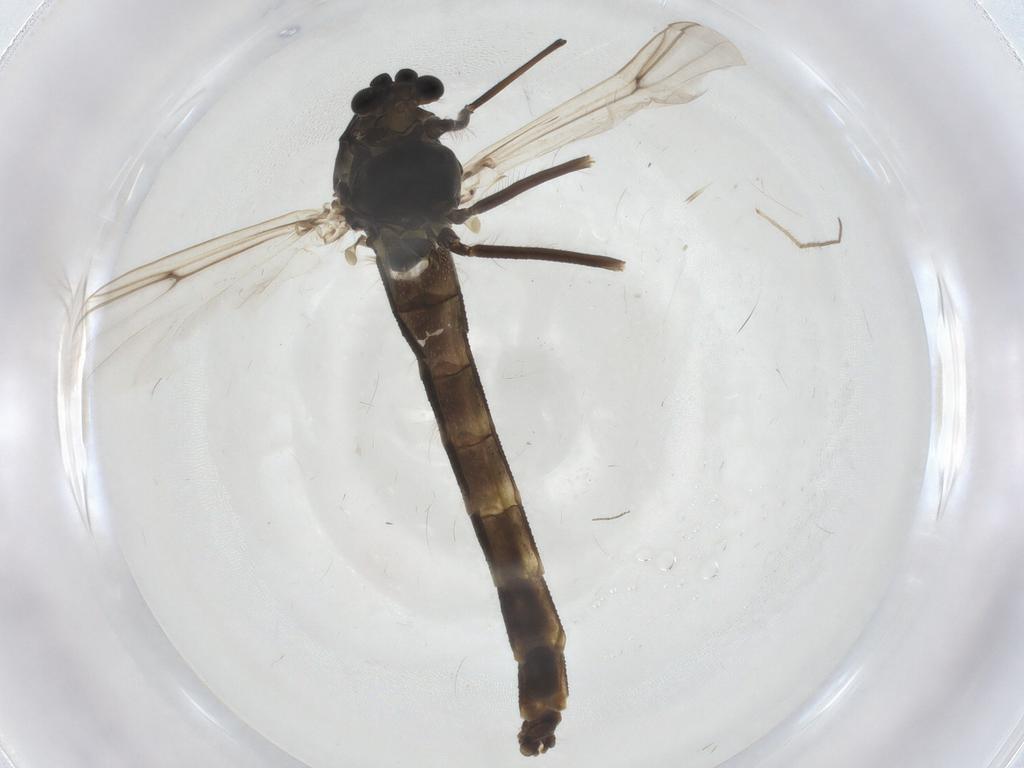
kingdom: Animalia
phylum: Arthropoda
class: Insecta
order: Diptera
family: Chironomidae
